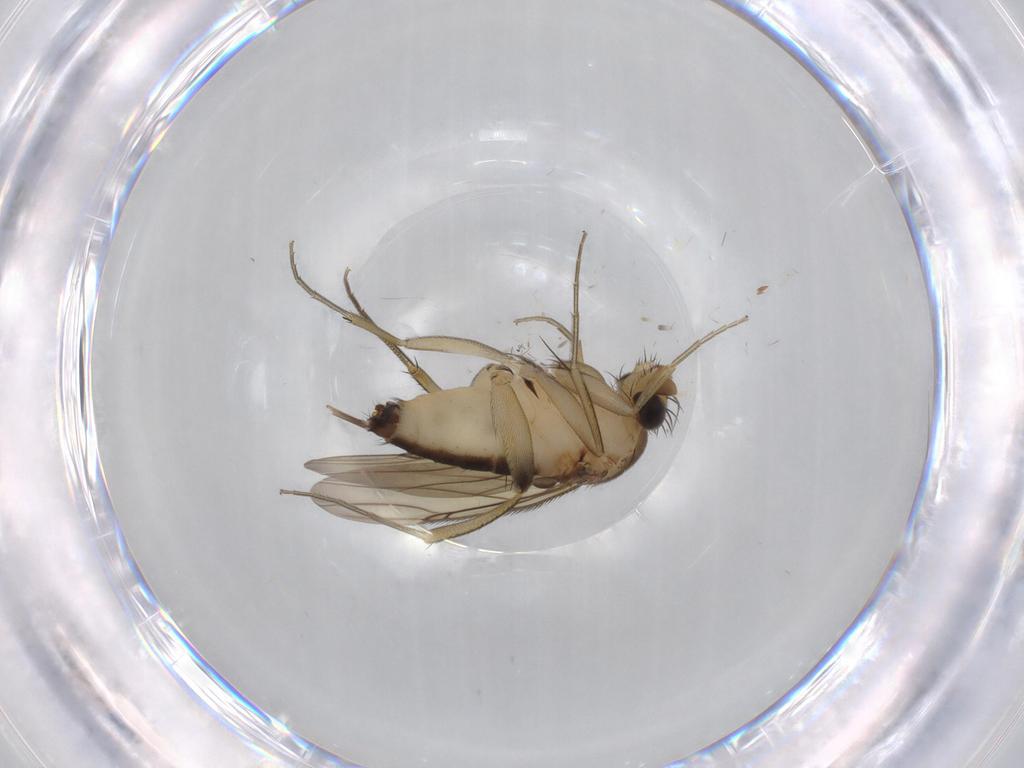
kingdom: Animalia
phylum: Arthropoda
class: Insecta
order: Diptera
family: Phoridae
